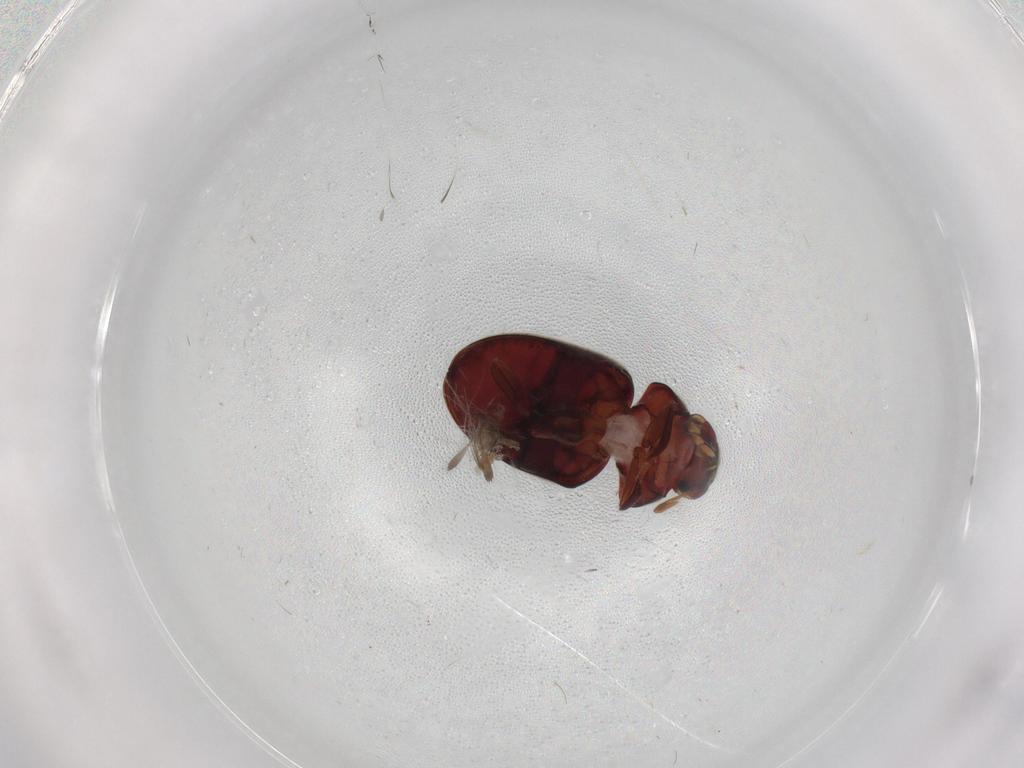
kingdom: Animalia
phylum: Arthropoda
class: Insecta
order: Coleoptera
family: Ptinidae
